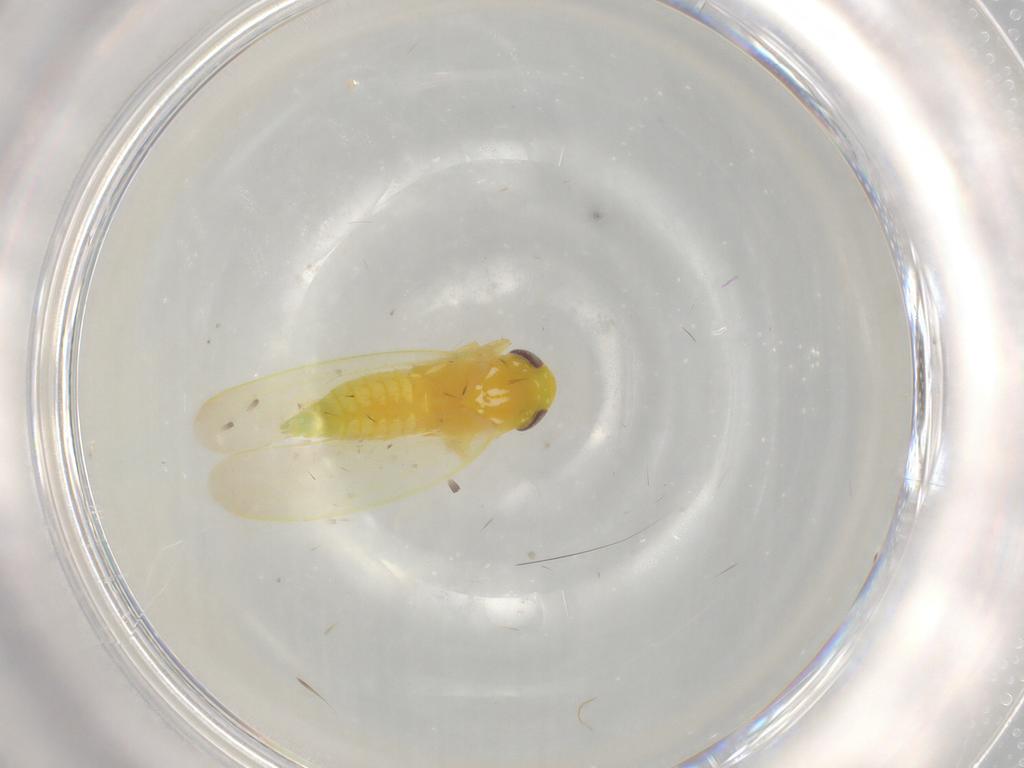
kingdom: Animalia
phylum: Arthropoda
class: Insecta
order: Hemiptera
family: Cicadellidae
